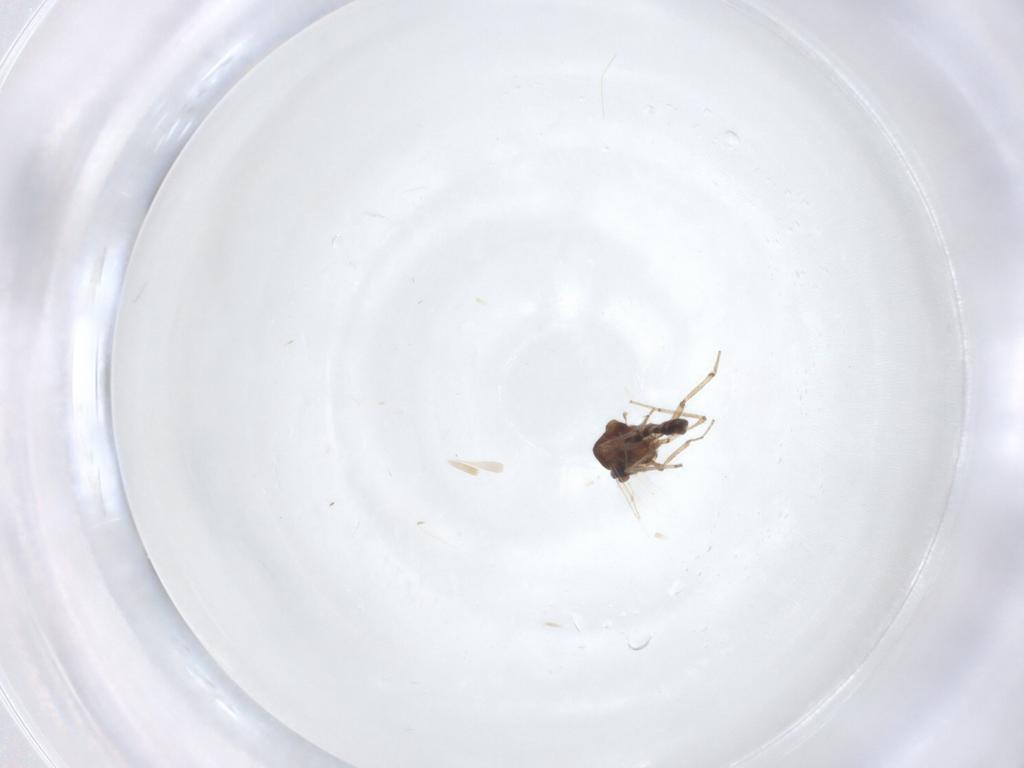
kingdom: Animalia
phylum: Arthropoda
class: Insecta
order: Diptera
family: Ceratopogonidae
